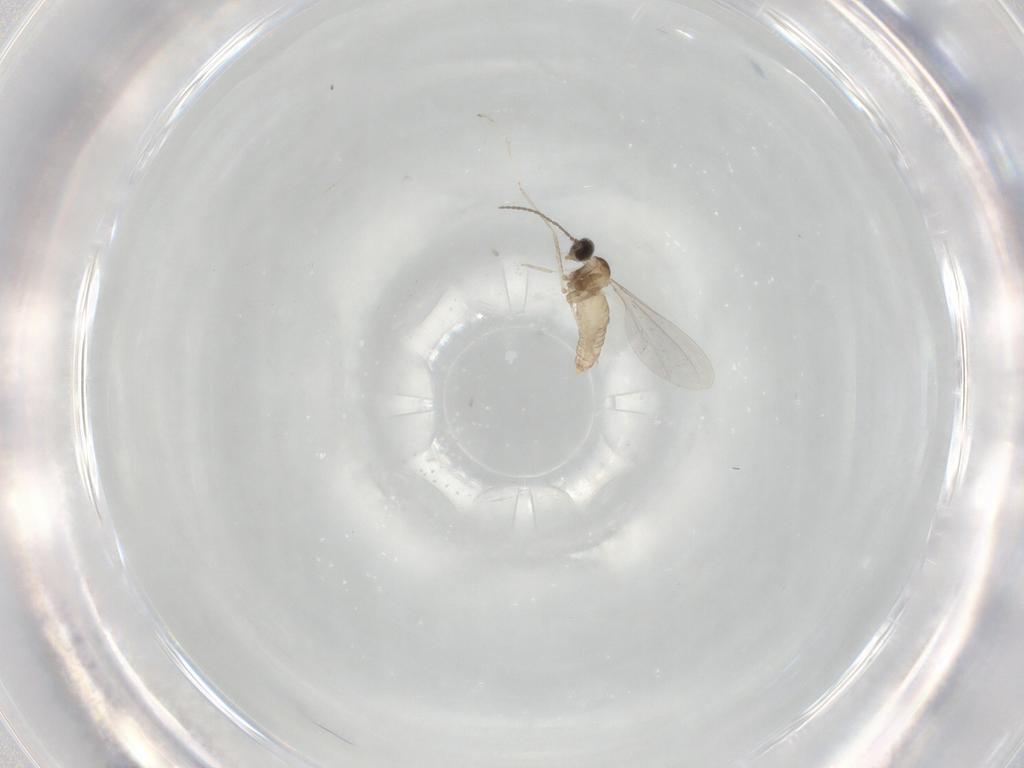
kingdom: Animalia
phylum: Arthropoda
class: Insecta
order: Diptera
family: Cecidomyiidae
